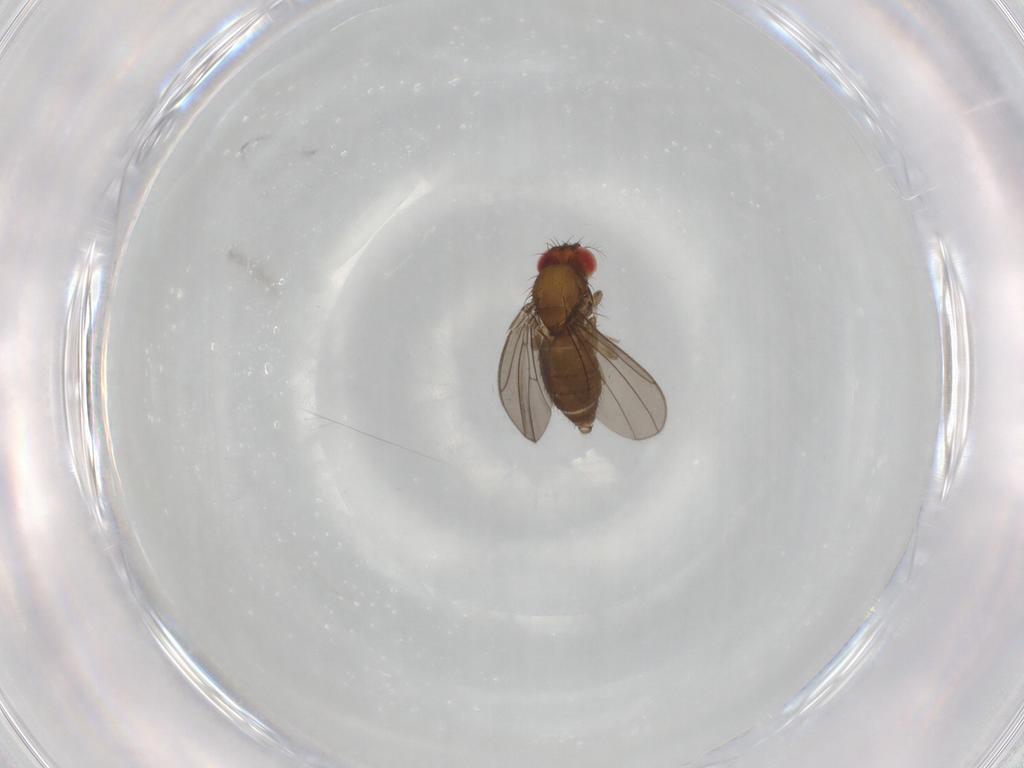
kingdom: Animalia
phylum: Arthropoda
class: Insecta
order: Diptera
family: Drosophilidae
